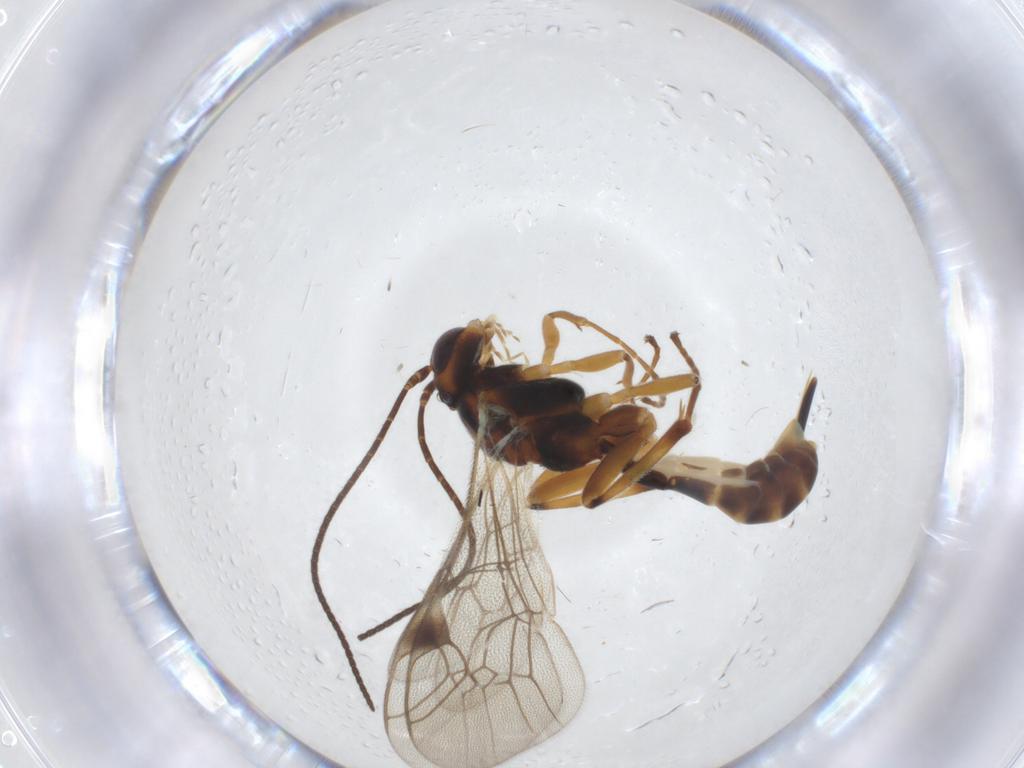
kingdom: Animalia
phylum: Arthropoda
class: Insecta
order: Hymenoptera
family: Ichneumonidae
